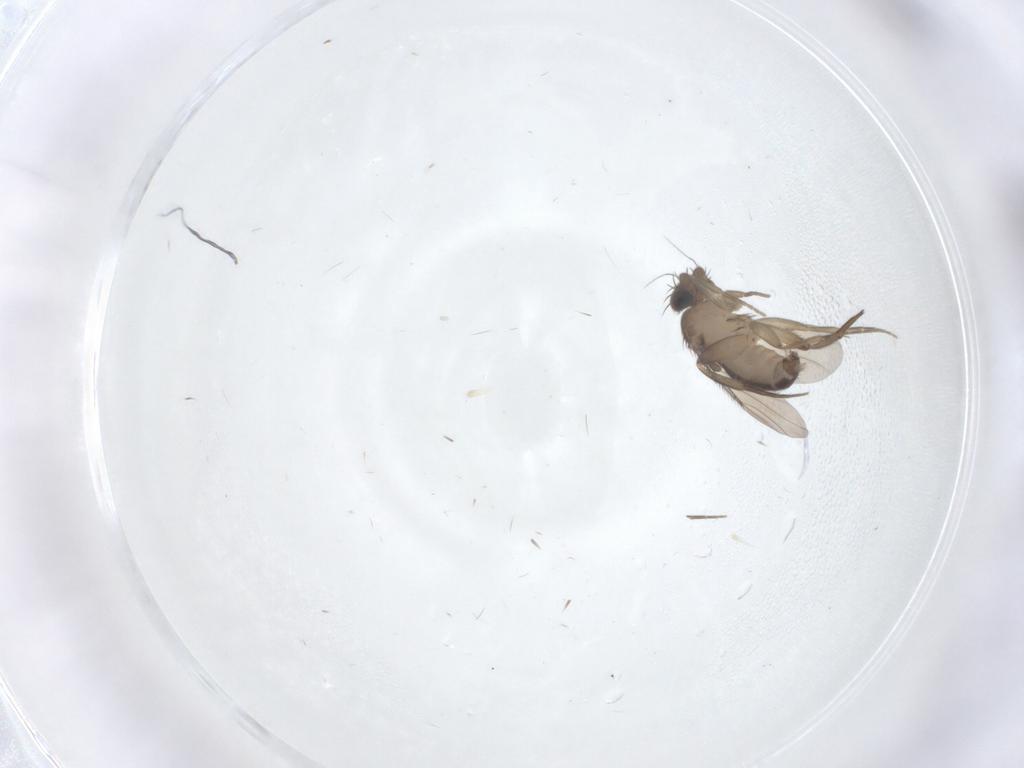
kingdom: Animalia
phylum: Arthropoda
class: Insecta
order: Diptera
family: Phoridae
